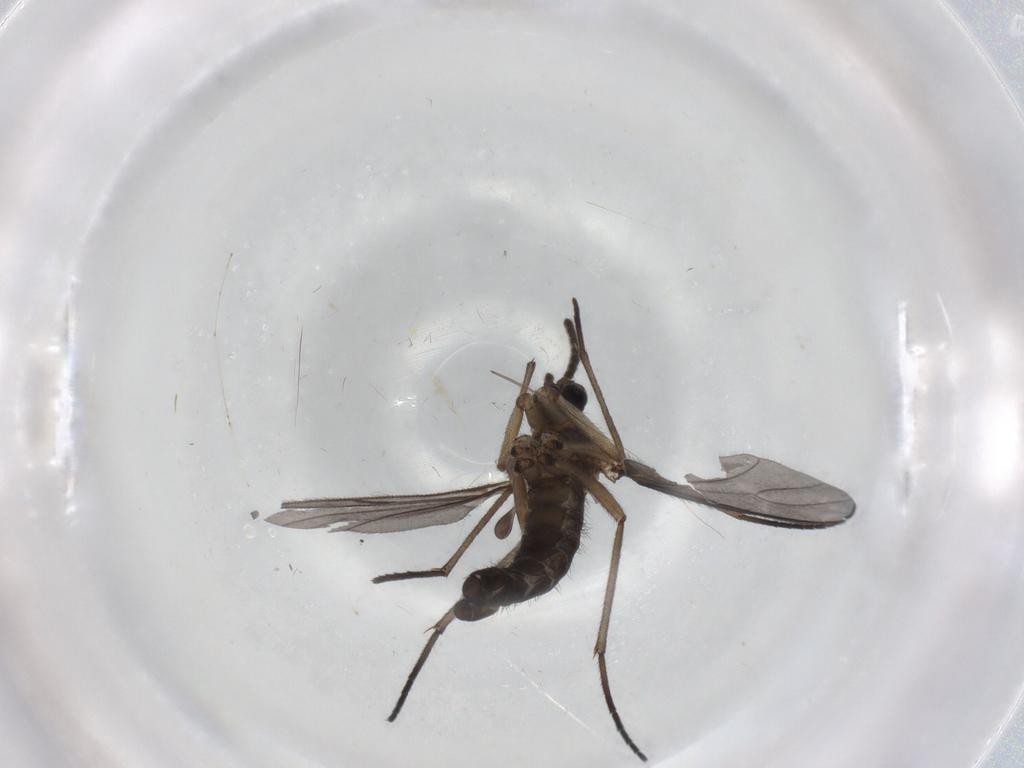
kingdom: Animalia
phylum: Arthropoda
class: Insecta
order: Diptera
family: Sciaridae
